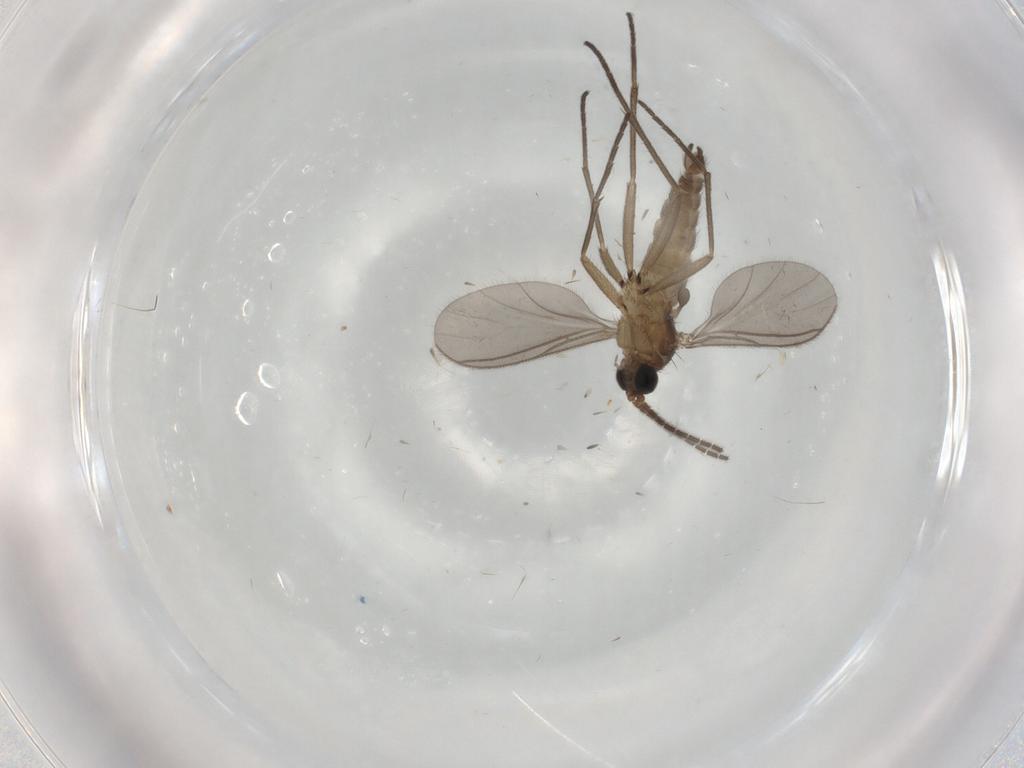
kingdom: Animalia
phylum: Arthropoda
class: Insecta
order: Diptera
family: Sciaridae
